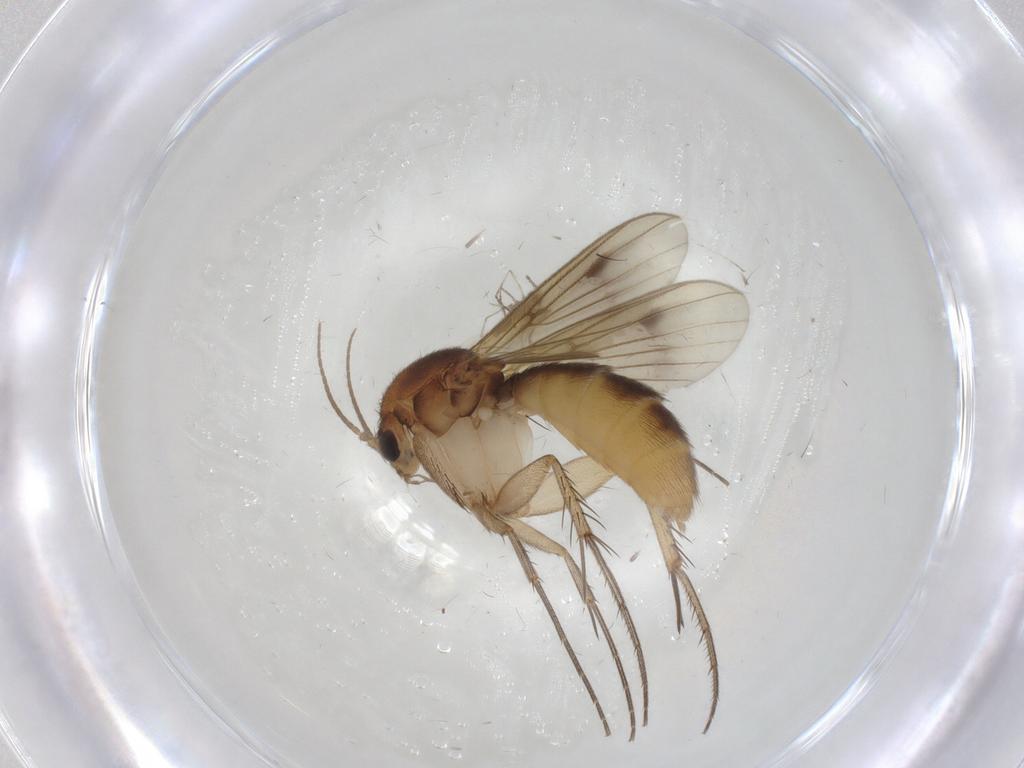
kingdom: Animalia
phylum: Arthropoda
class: Insecta
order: Diptera
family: Mycetophilidae
